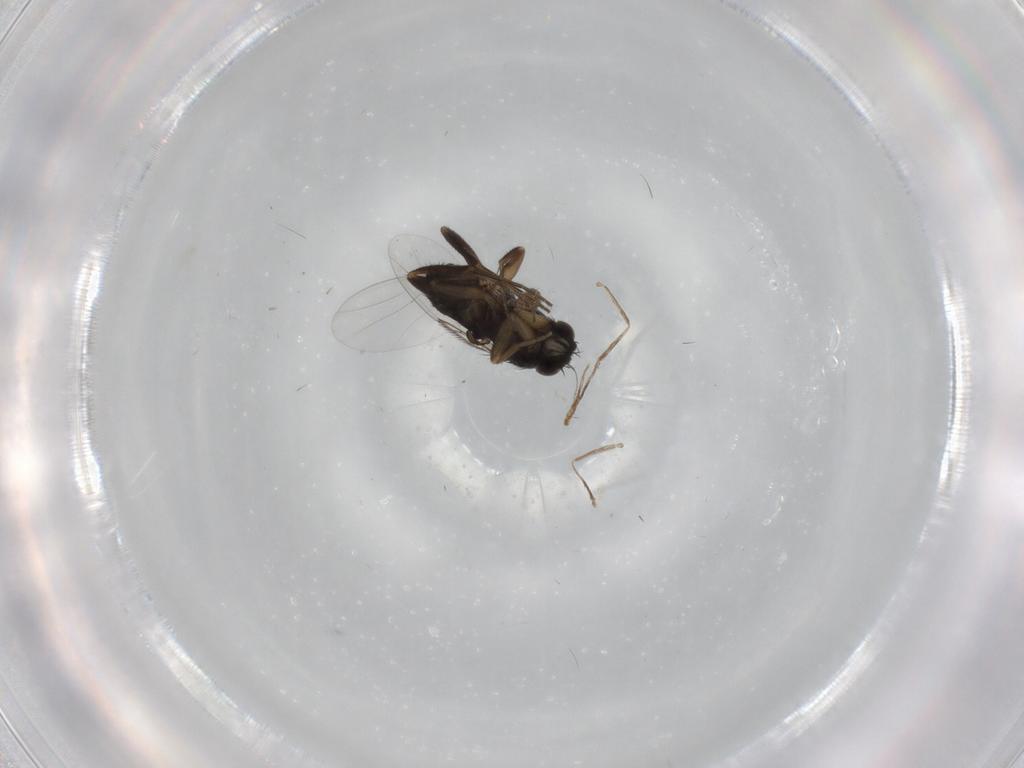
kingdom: Animalia
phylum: Arthropoda
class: Insecta
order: Diptera
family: Phoridae
